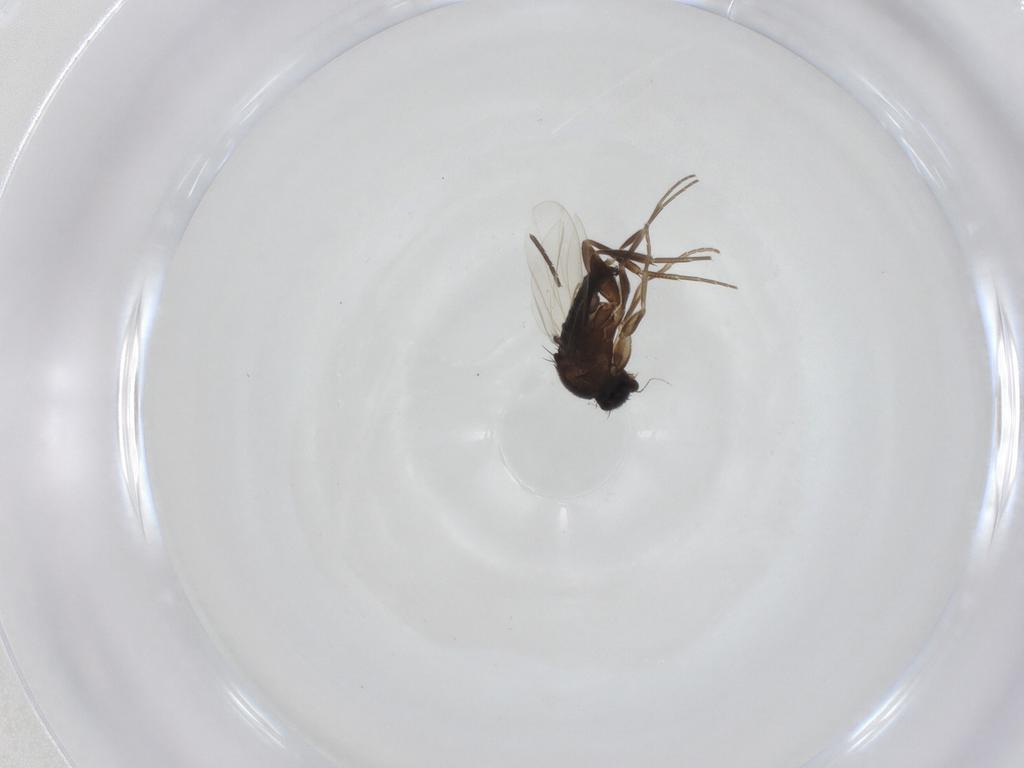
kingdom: Animalia
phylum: Arthropoda
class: Insecta
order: Diptera
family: Phoridae
